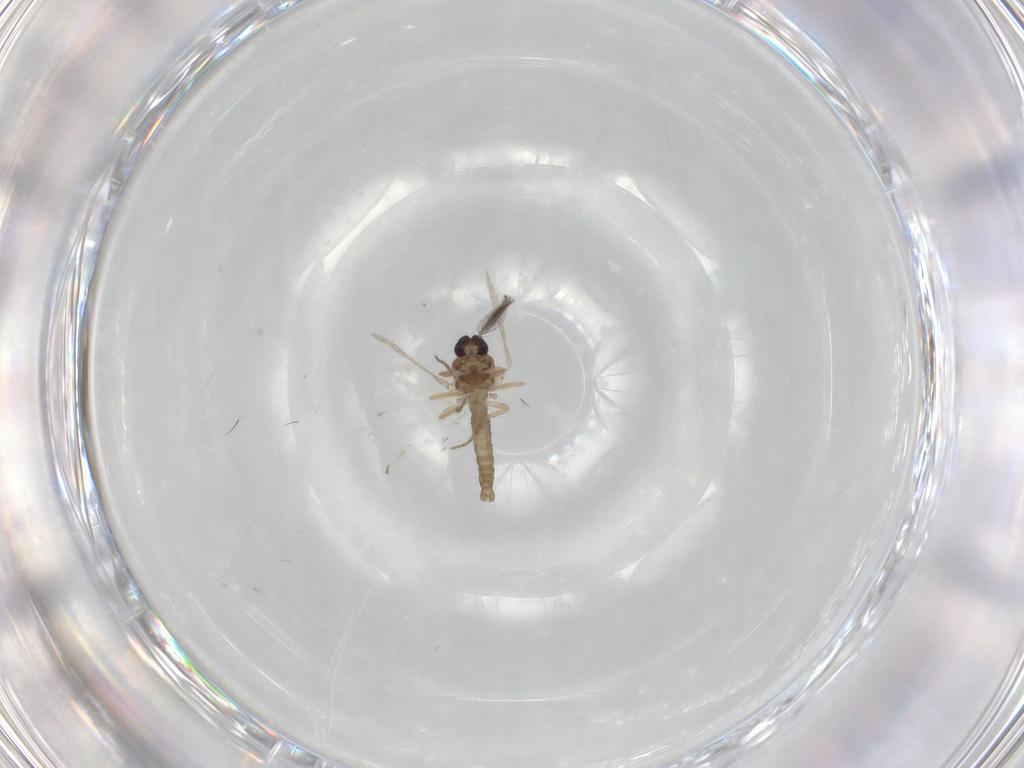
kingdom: Animalia
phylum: Arthropoda
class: Insecta
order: Diptera
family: Ceratopogonidae
